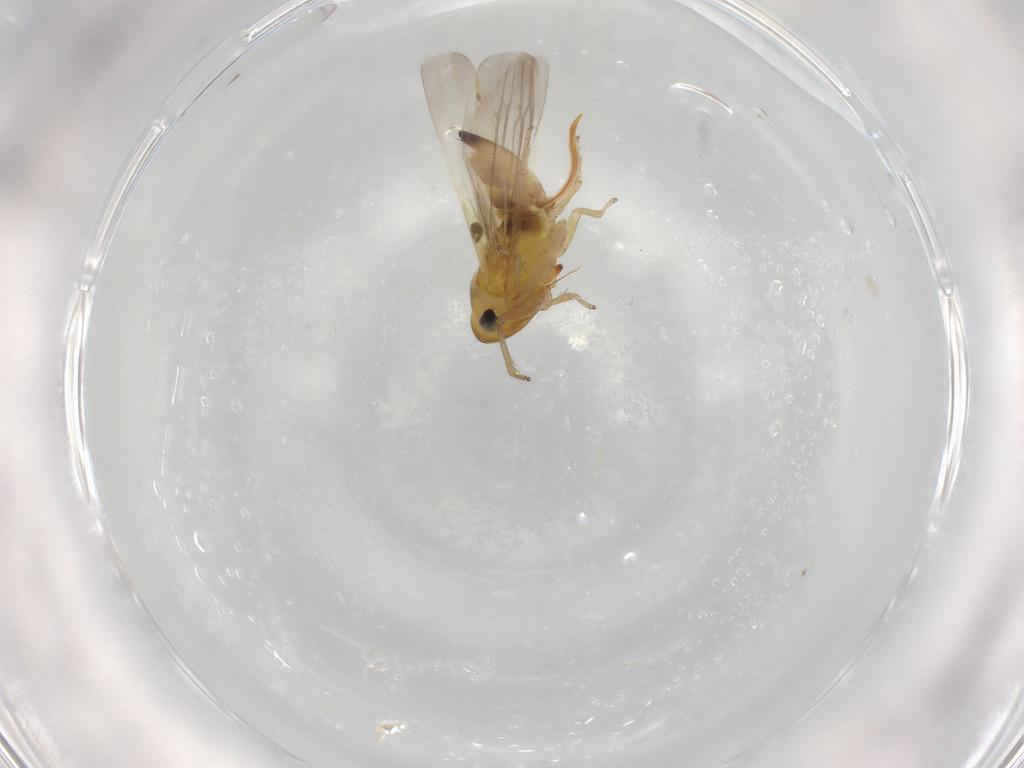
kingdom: Animalia
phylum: Arthropoda
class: Insecta
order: Hemiptera
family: Cicadellidae
